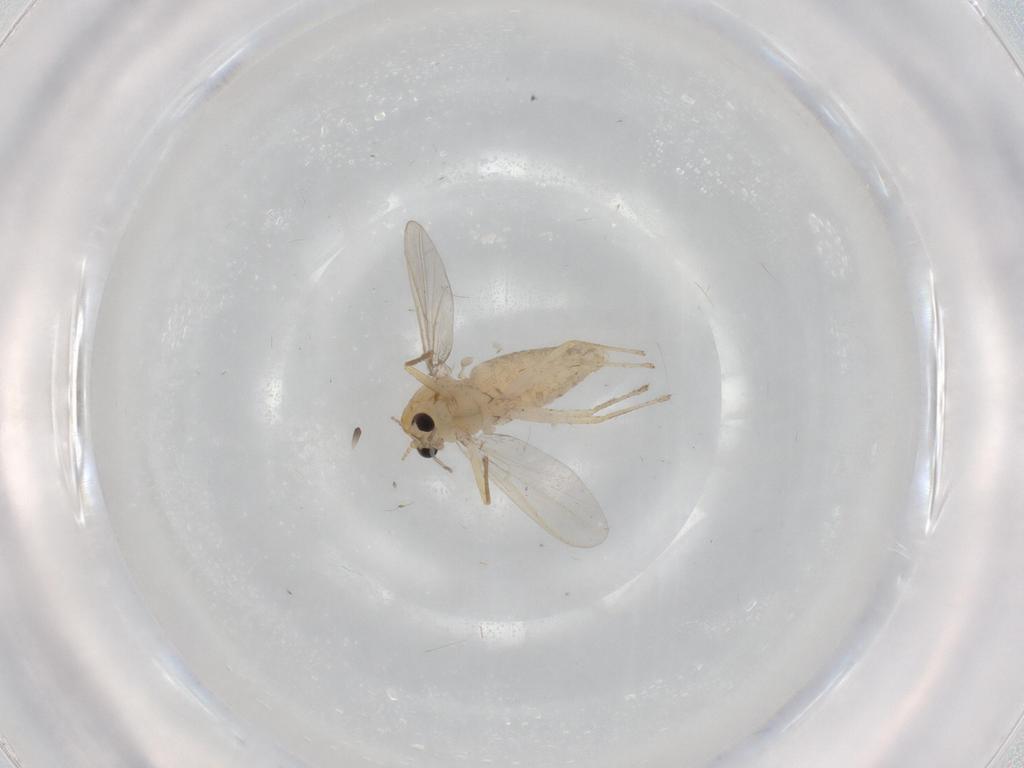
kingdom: Animalia
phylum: Arthropoda
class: Insecta
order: Diptera
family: Chironomidae
